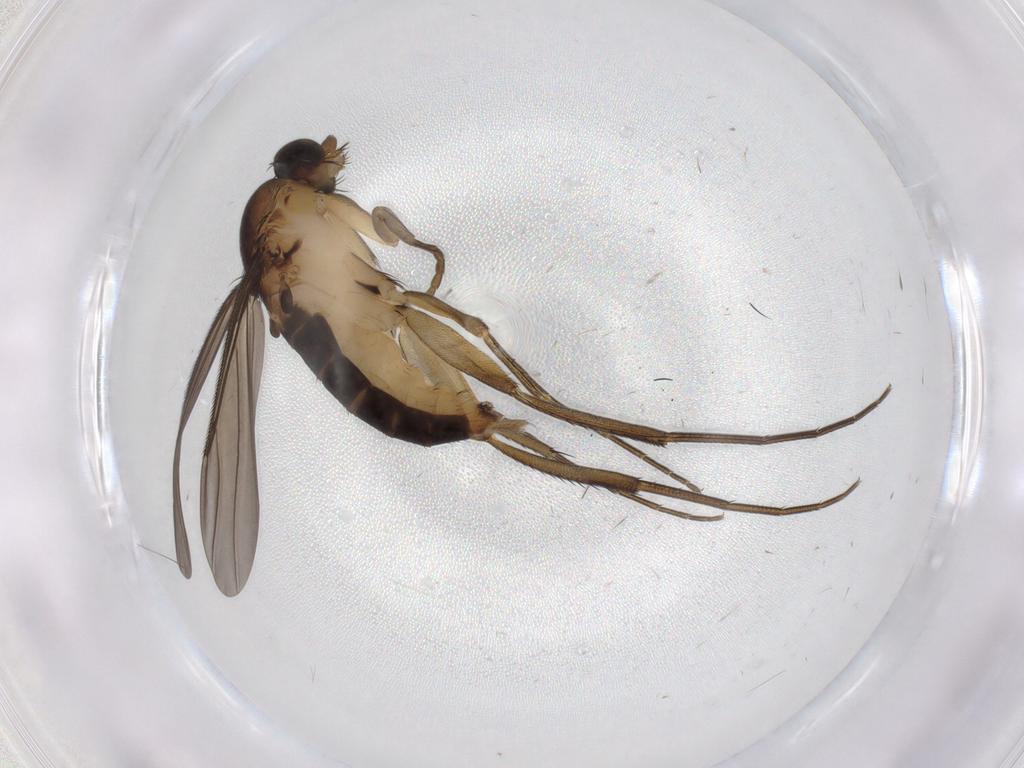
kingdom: Animalia
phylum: Arthropoda
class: Insecta
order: Diptera
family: Phoridae
